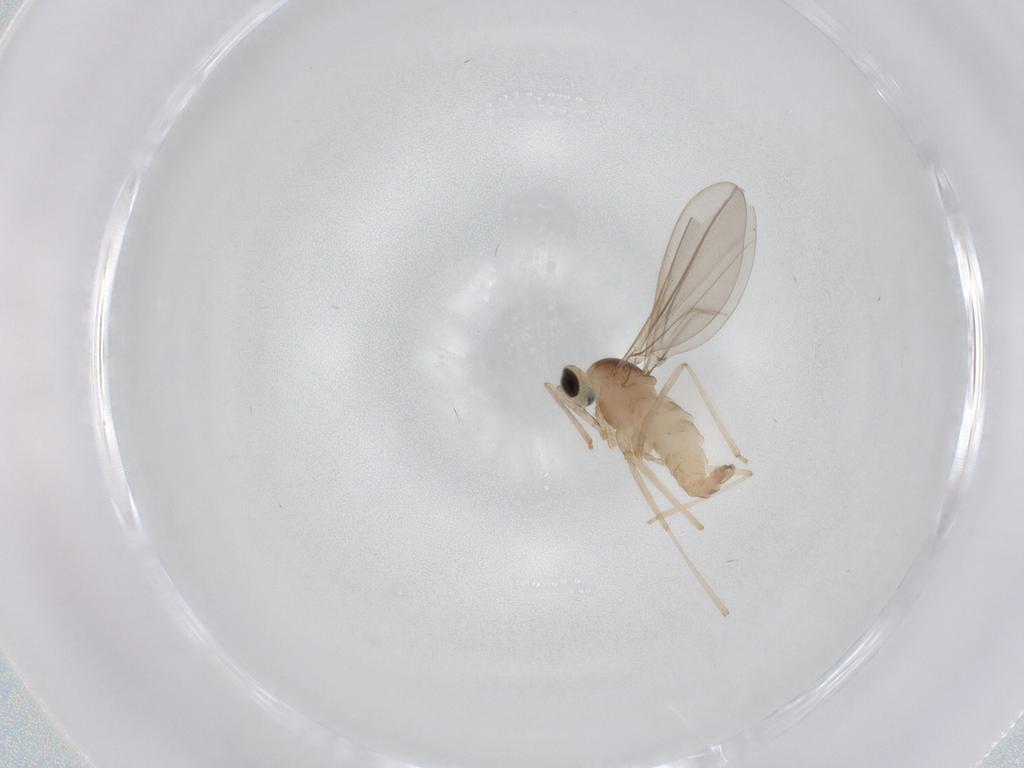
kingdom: Animalia
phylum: Arthropoda
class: Insecta
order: Diptera
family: Cecidomyiidae
